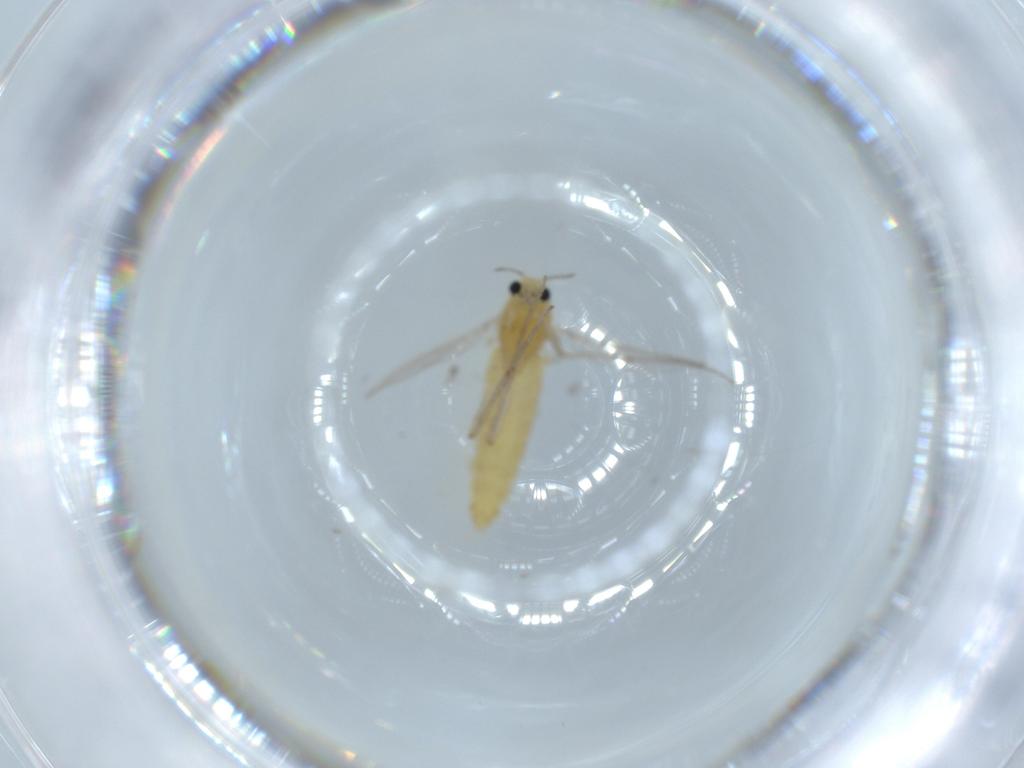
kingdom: Animalia
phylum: Arthropoda
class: Insecta
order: Diptera
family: Chironomidae
